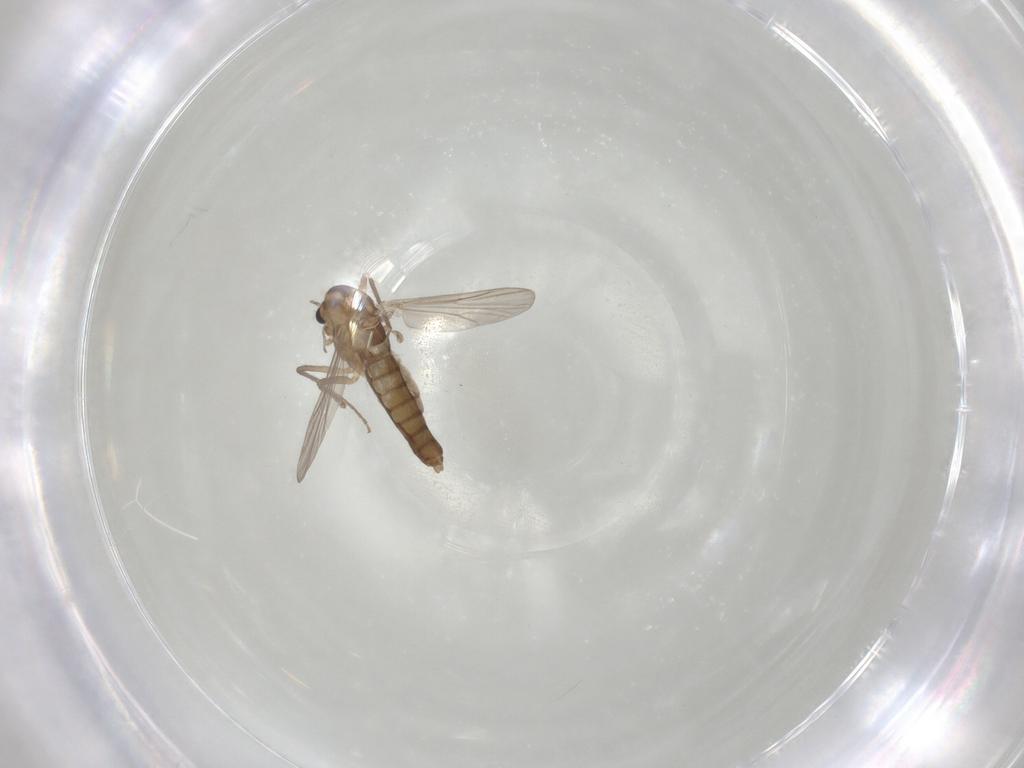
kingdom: Animalia
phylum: Arthropoda
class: Insecta
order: Diptera
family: Chironomidae
